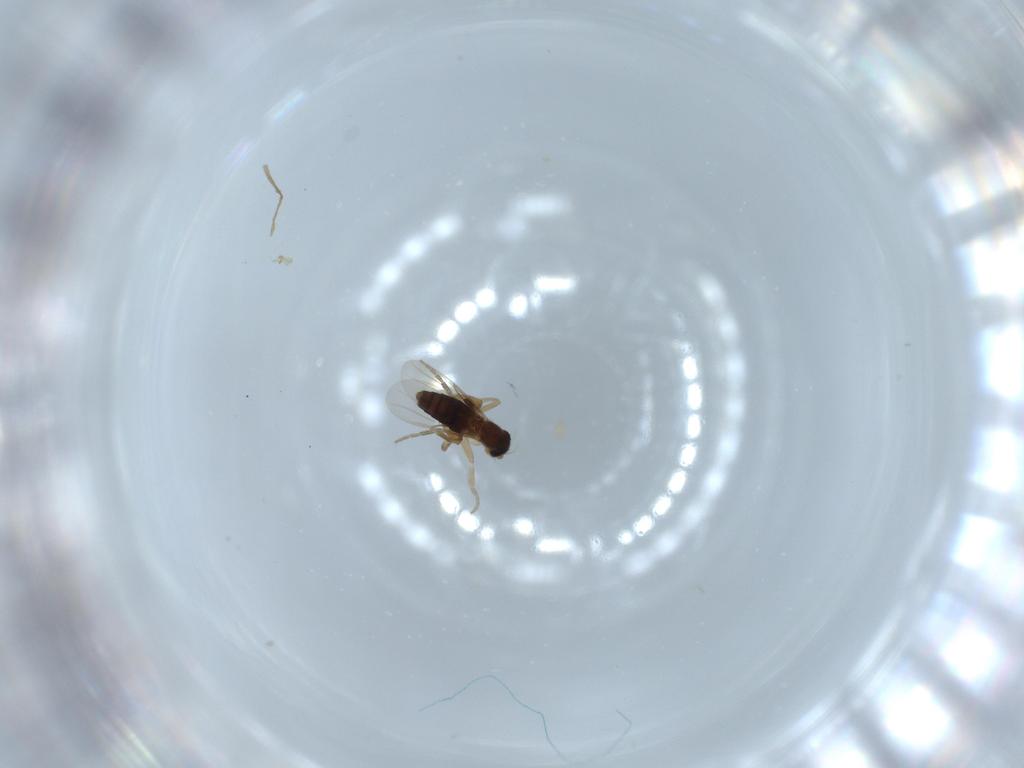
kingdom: Animalia
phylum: Arthropoda
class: Insecta
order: Diptera
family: Phoridae
